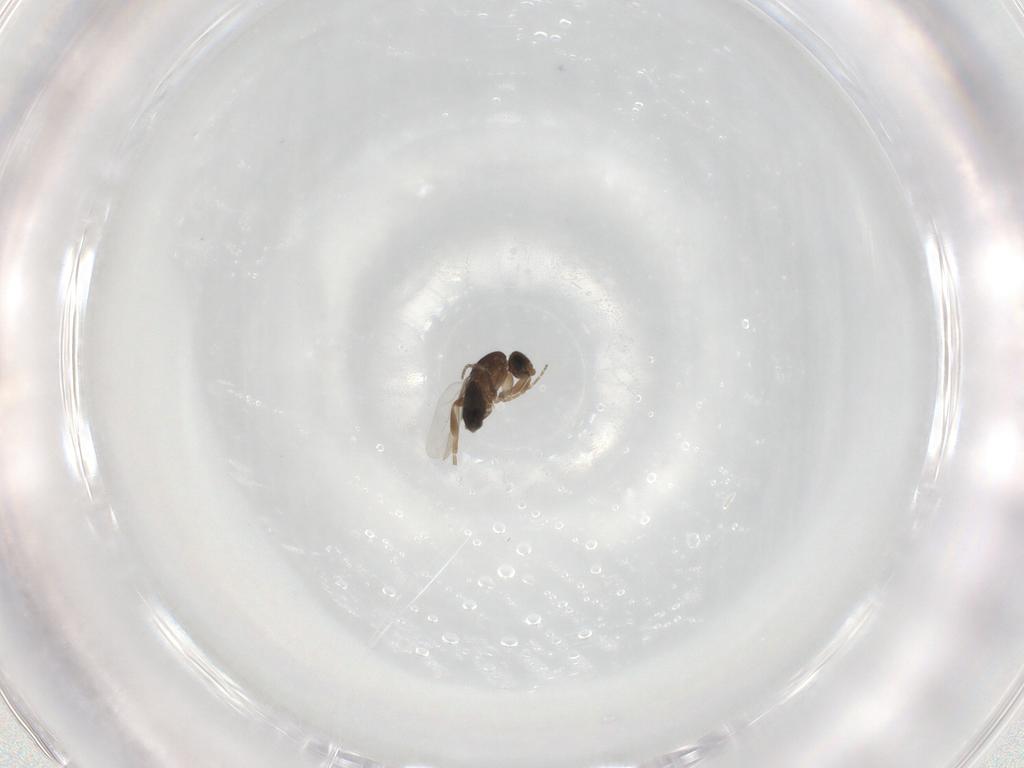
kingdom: Animalia
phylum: Arthropoda
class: Insecta
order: Diptera
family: Phoridae
